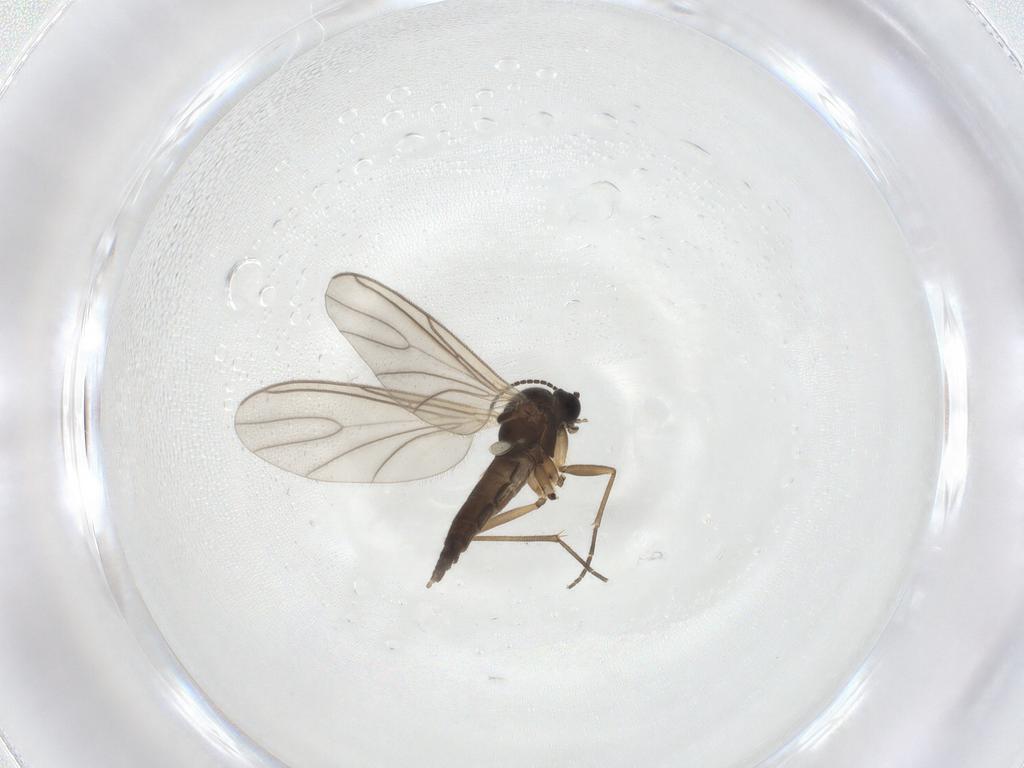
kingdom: Animalia
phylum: Arthropoda
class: Insecta
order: Diptera
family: Sciaridae
